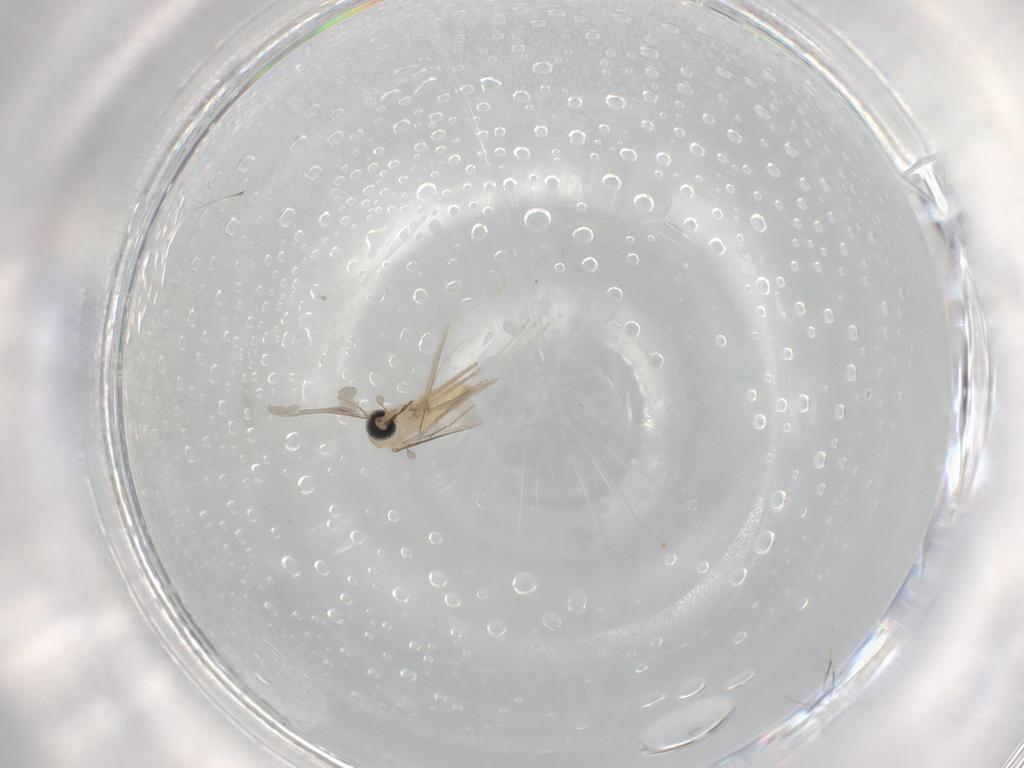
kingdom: Animalia
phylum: Arthropoda
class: Insecta
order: Diptera
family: Cecidomyiidae
